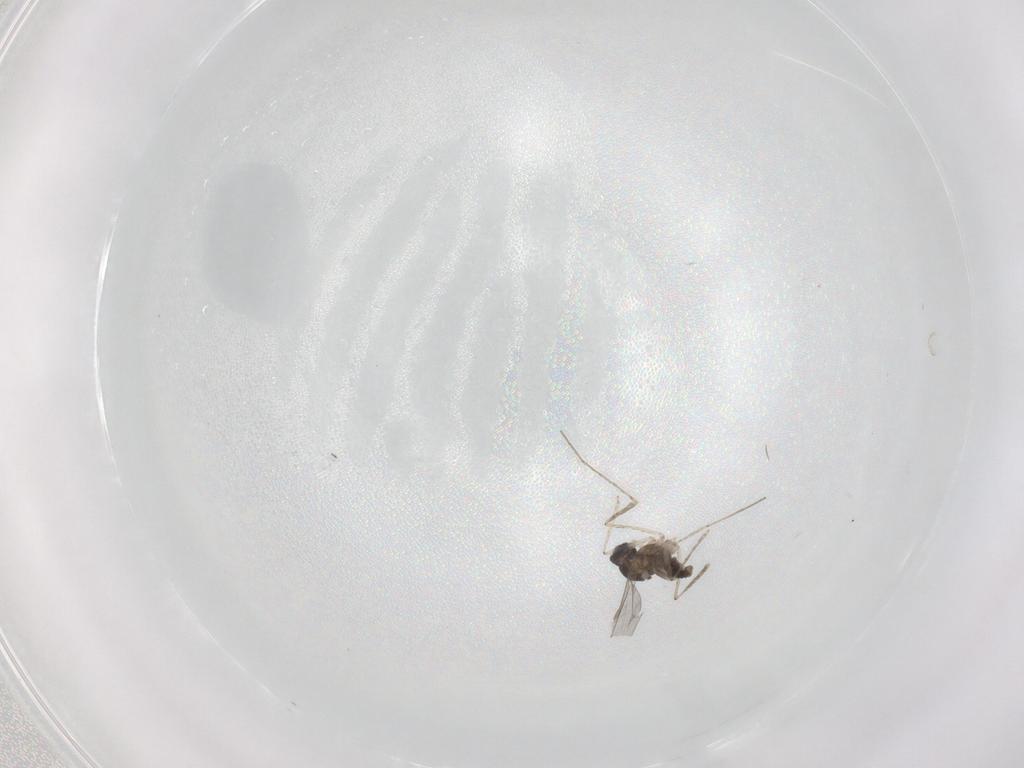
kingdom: Animalia
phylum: Arthropoda
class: Insecta
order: Diptera
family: Cecidomyiidae
